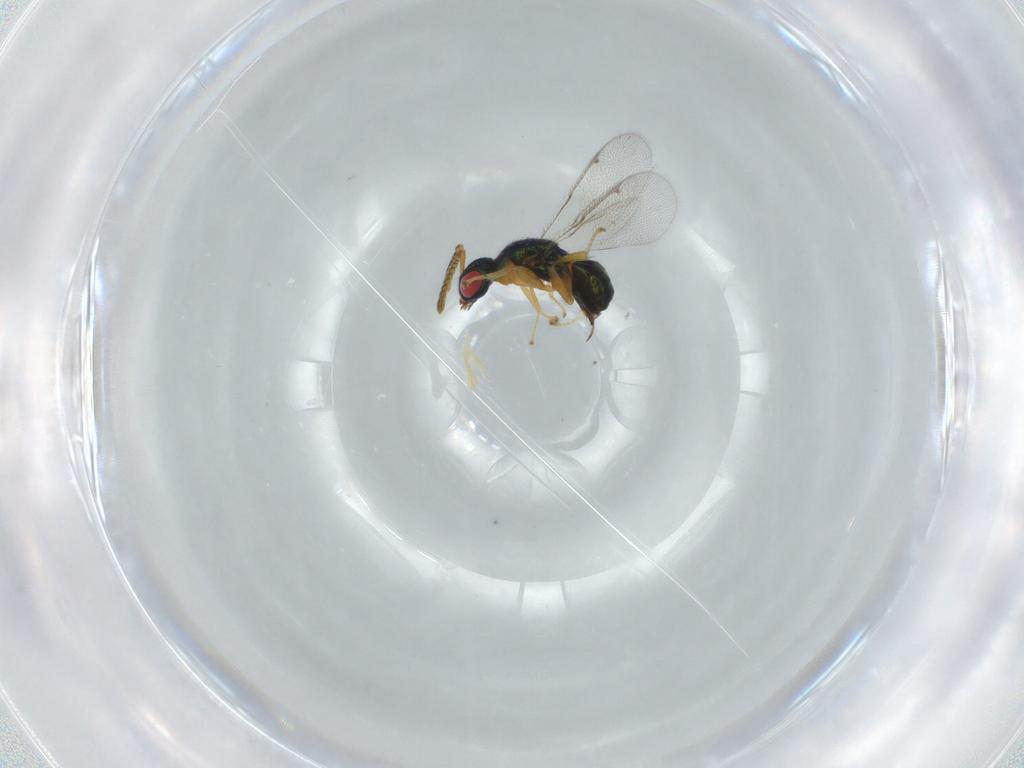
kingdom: Animalia
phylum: Arthropoda
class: Insecta
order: Hymenoptera
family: Torymidae
